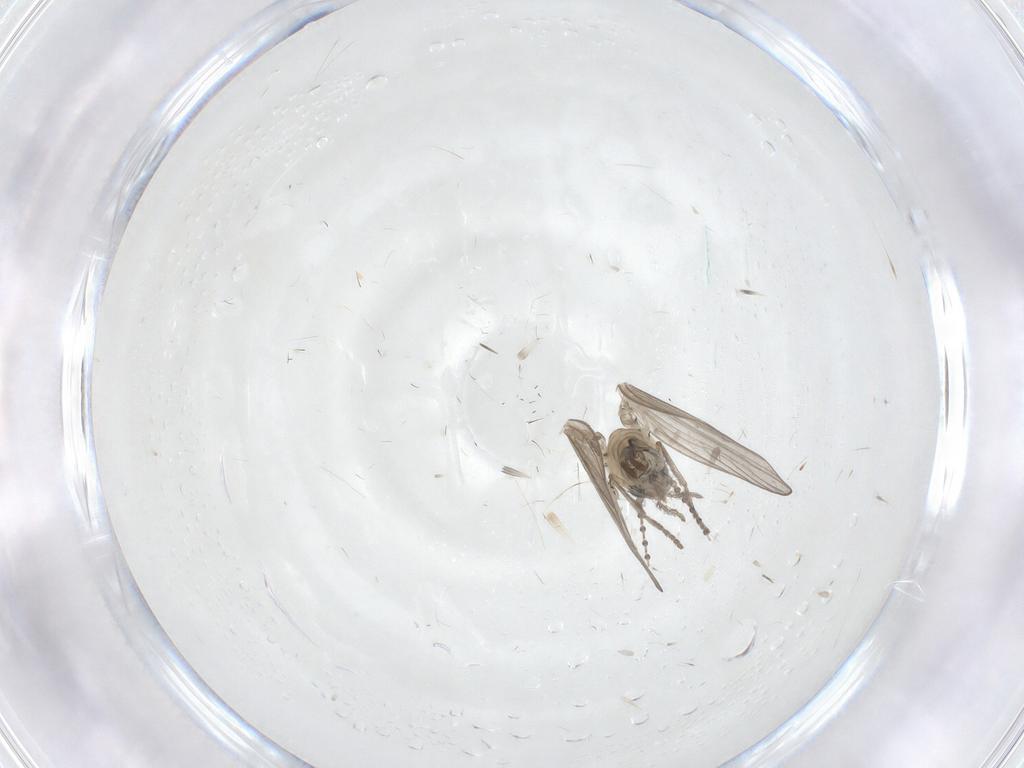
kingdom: Animalia
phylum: Arthropoda
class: Insecta
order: Diptera
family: Psychodidae
